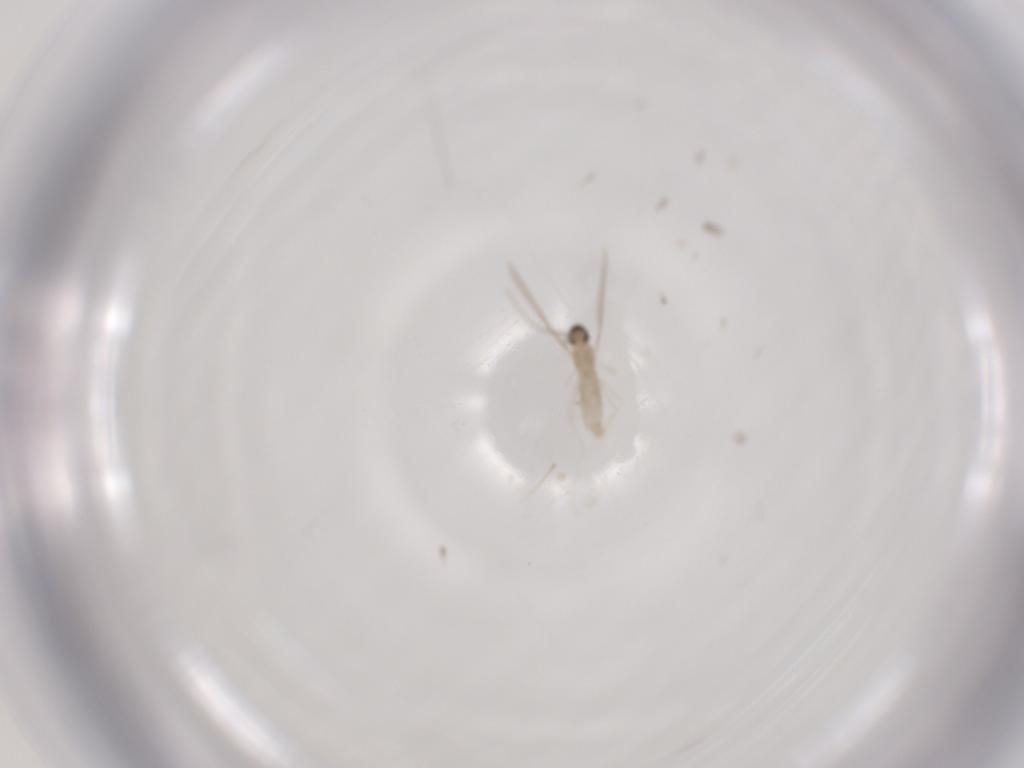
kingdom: Animalia
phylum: Arthropoda
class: Insecta
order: Diptera
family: Cecidomyiidae
